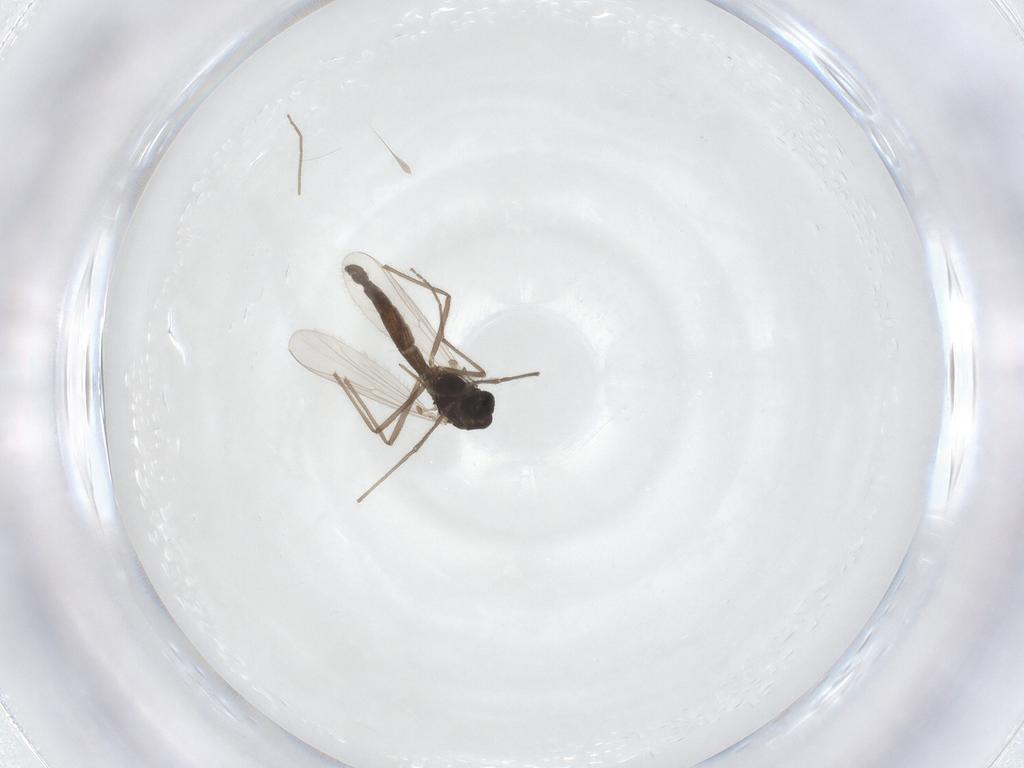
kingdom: Animalia
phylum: Arthropoda
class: Insecta
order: Diptera
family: Chironomidae
